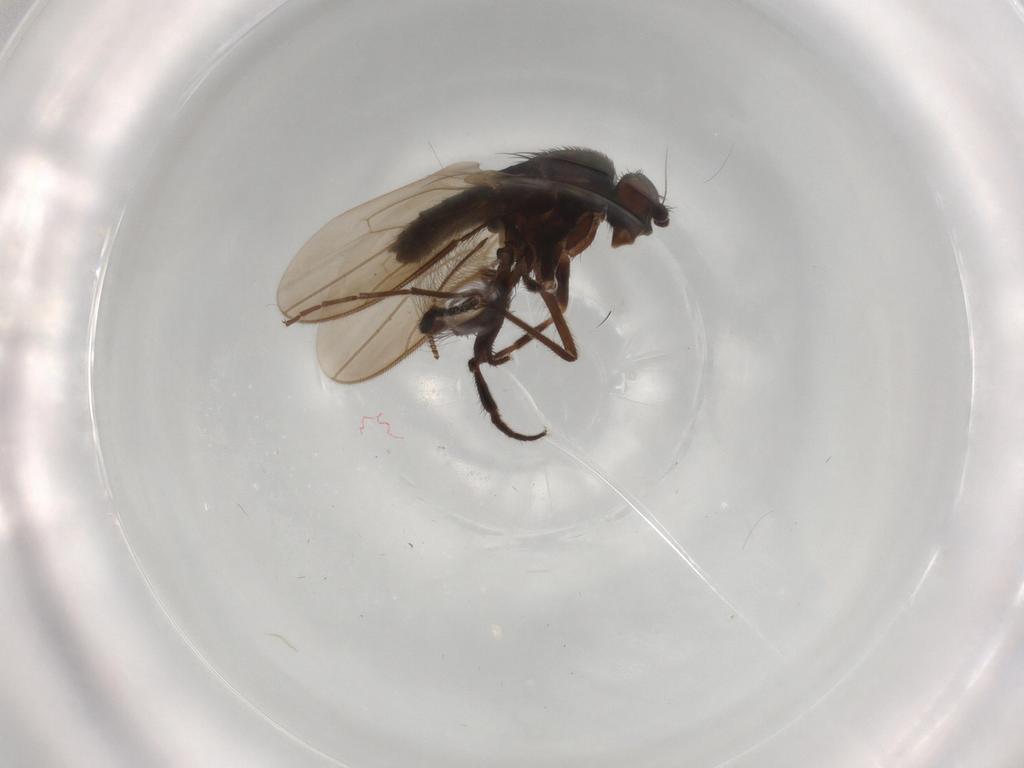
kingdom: Animalia
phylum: Arthropoda
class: Insecta
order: Diptera
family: Sphaeroceridae
